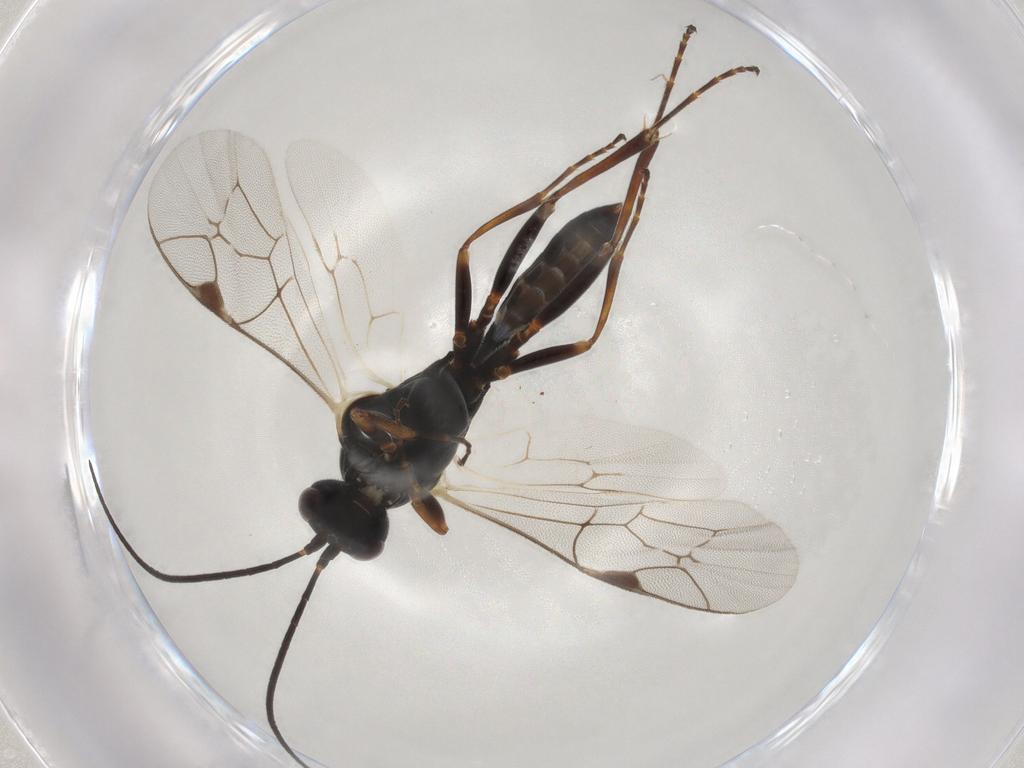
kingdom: Animalia
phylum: Arthropoda
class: Insecta
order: Hymenoptera
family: Ichneumonidae
